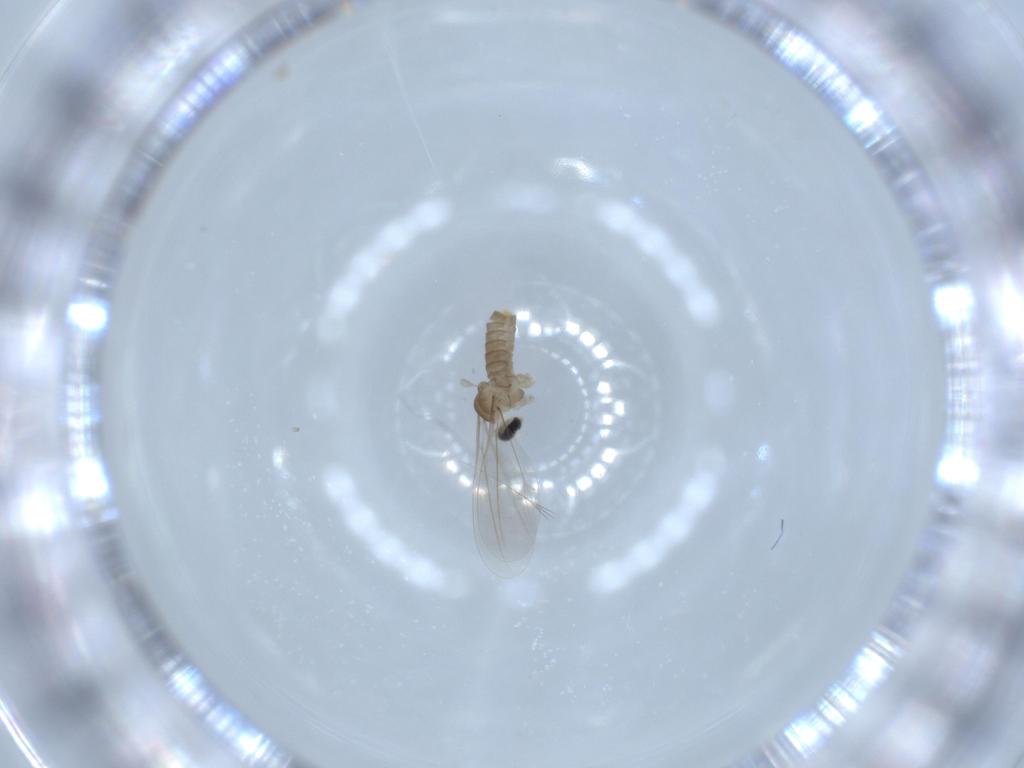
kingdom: Animalia
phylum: Arthropoda
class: Insecta
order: Diptera
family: Cecidomyiidae
